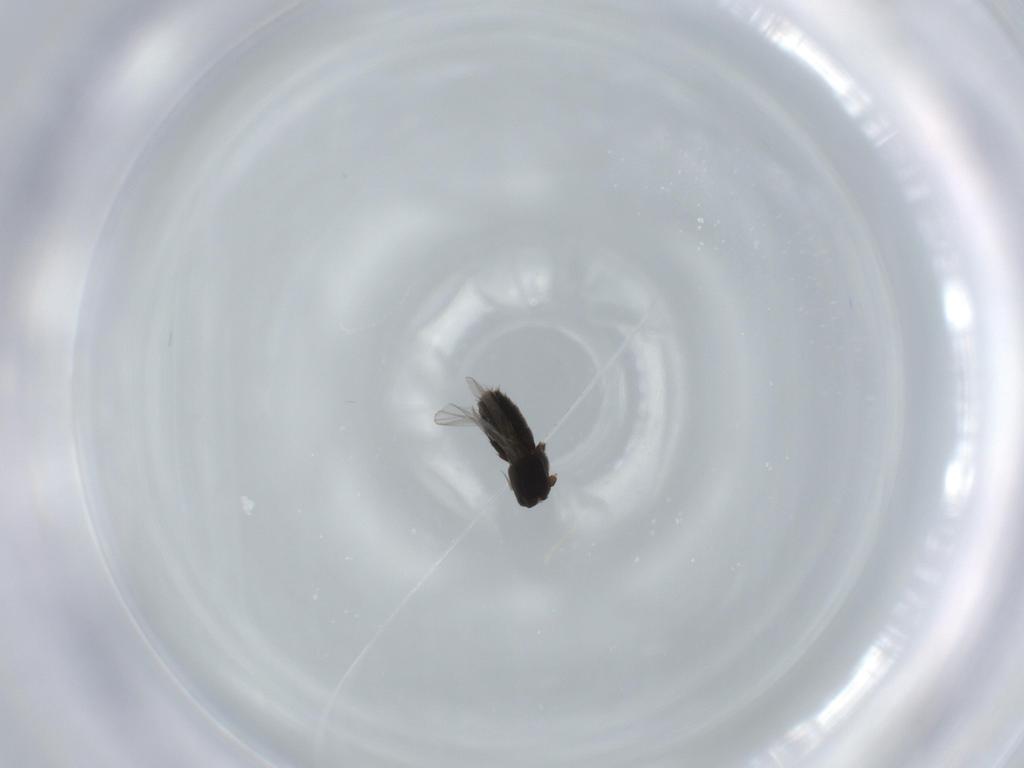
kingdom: Animalia
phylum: Arthropoda
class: Insecta
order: Coleoptera
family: Staphylinidae
